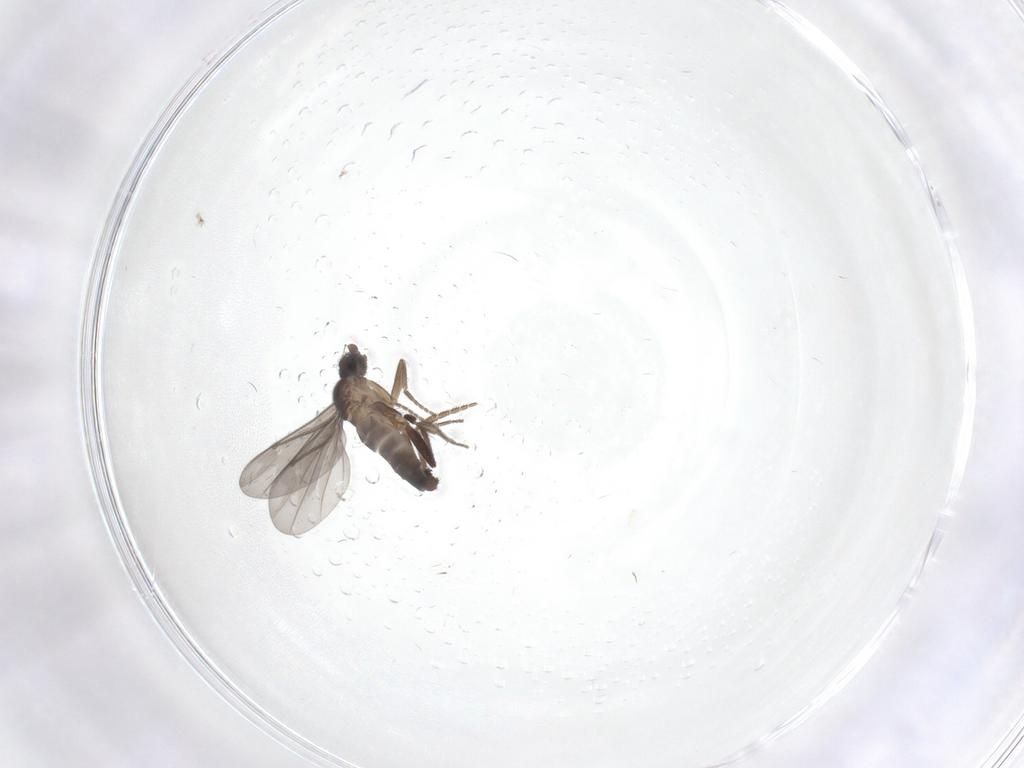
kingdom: Animalia
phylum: Arthropoda
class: Insecta
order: Diptera
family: Phoridae
